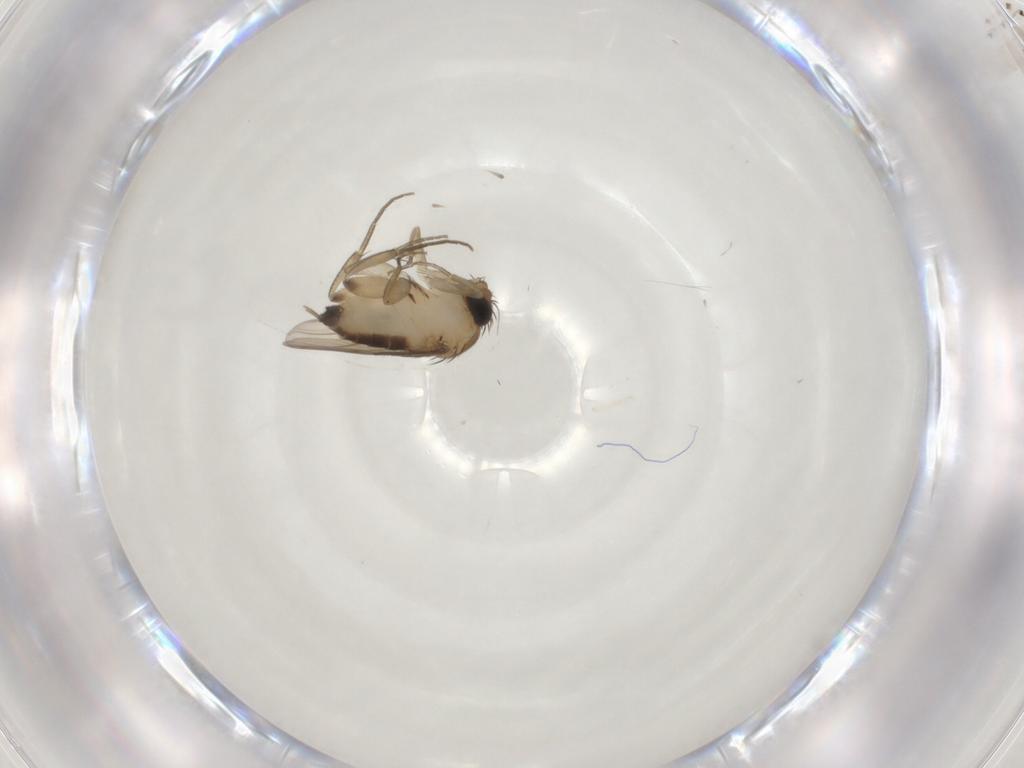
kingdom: Animalia
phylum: Arthropoda
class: Insecta
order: Diptera
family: Phoridae
